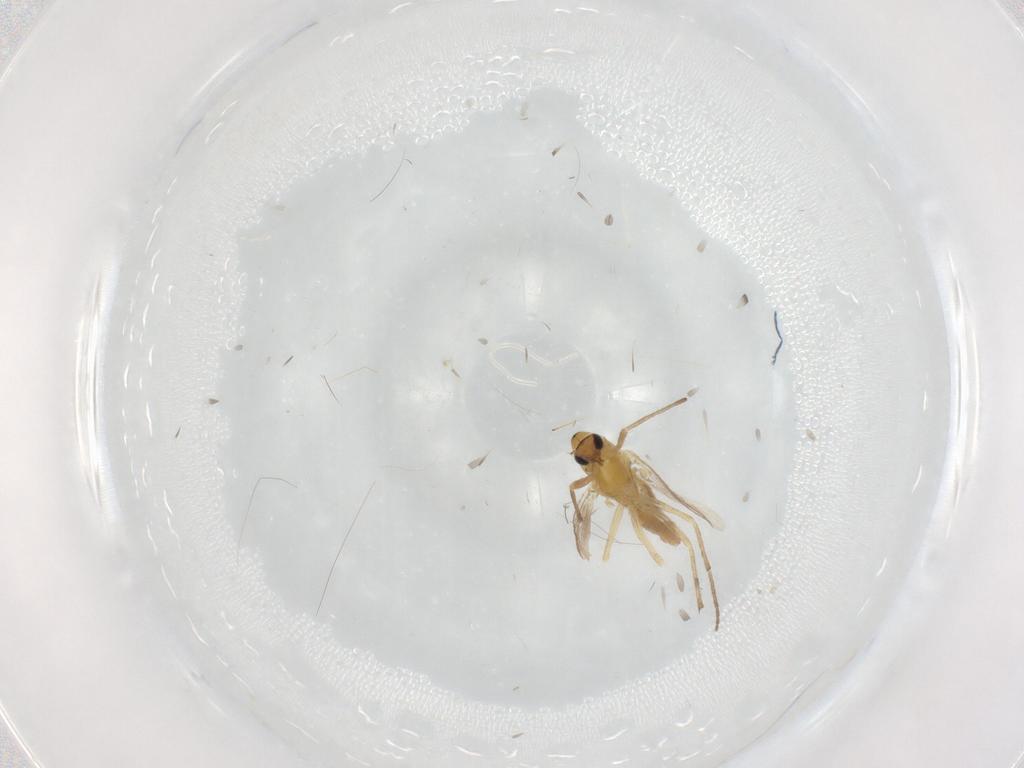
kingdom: Animalia
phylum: Arthropoda
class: Insecta
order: Diptera
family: Chironomidae
